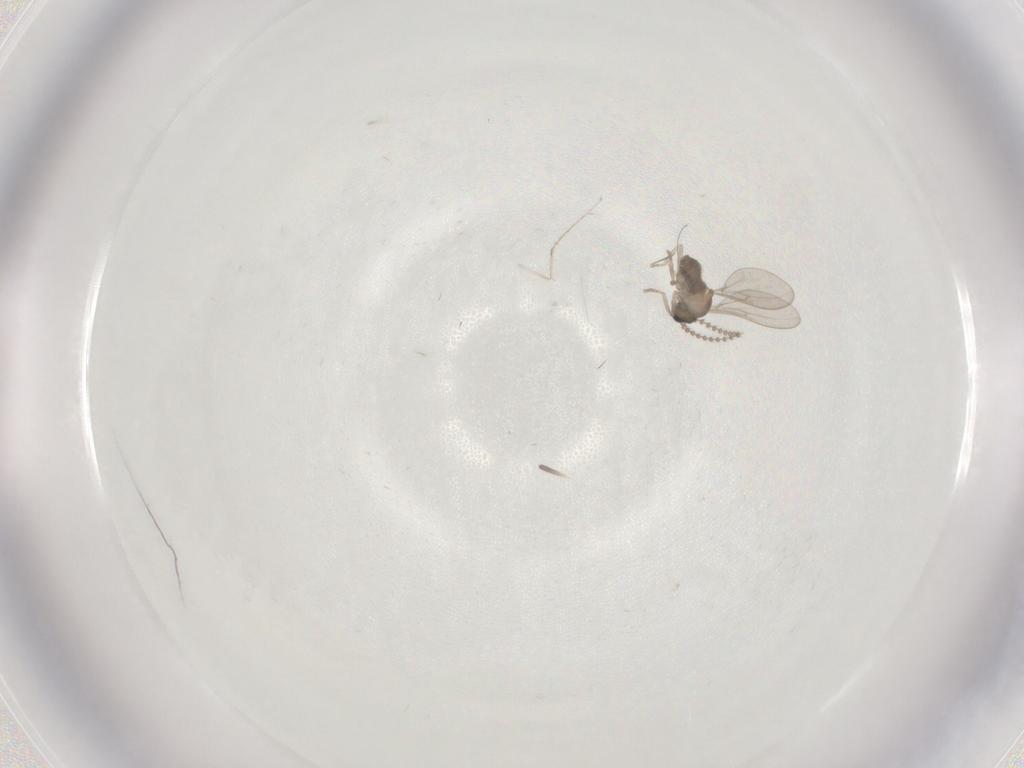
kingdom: Animalia
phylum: Arthropoda
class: Insecta
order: Diptera
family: Cecidomyiidae
